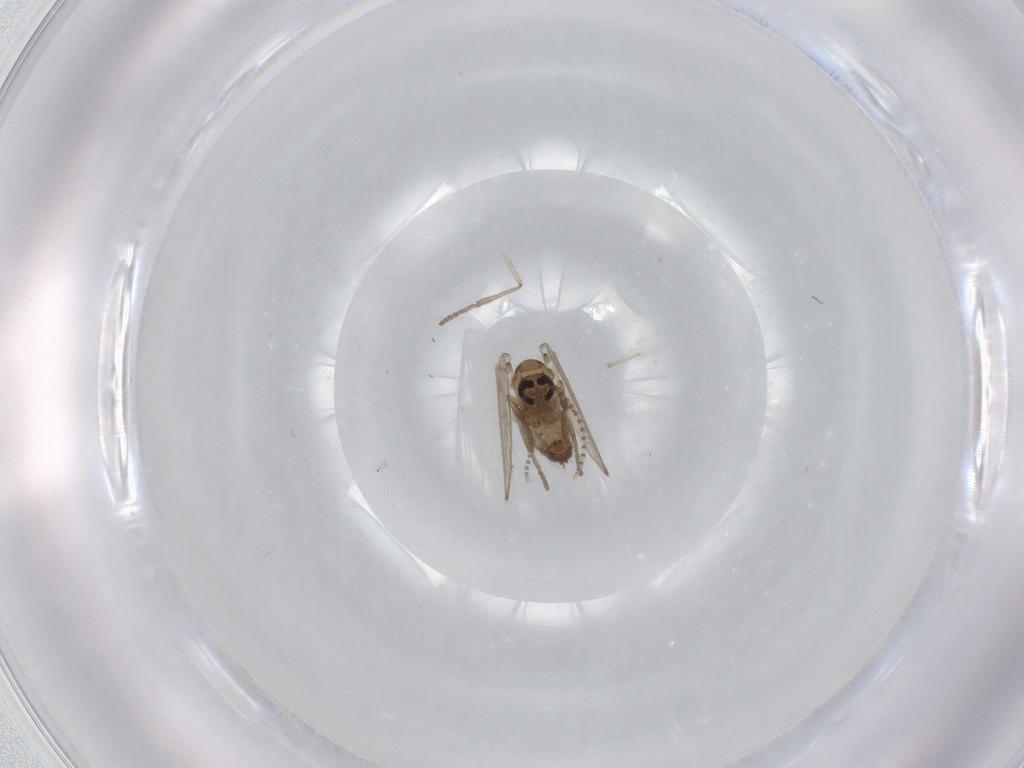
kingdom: Animalia
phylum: Arthropoda
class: Insecta
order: Diptera
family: Psychodidae
